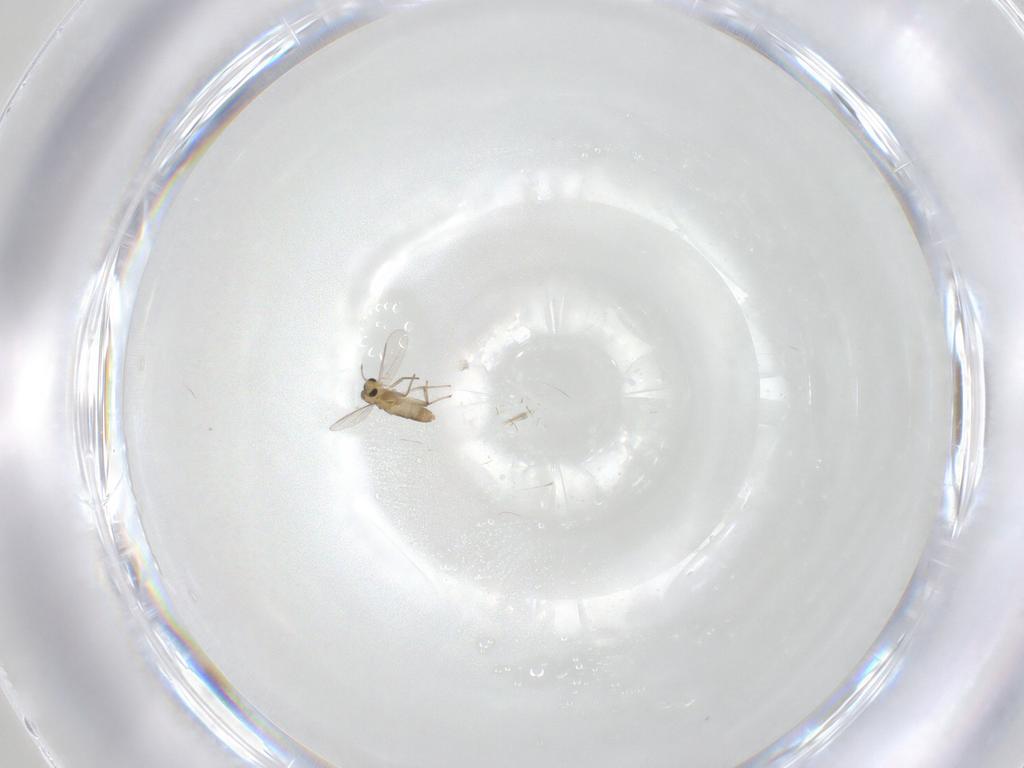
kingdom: Animalia
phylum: Arthropoda
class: Insecta
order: Diptera
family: Chironomidae
